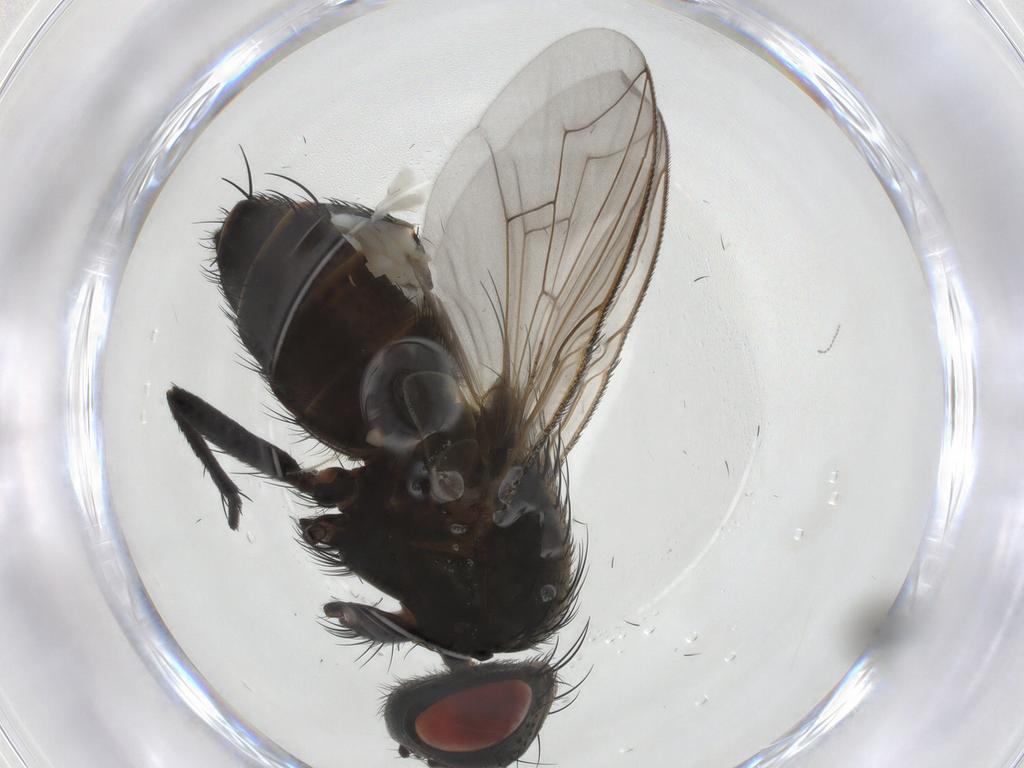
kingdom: Animalia
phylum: Arthropoda
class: Insecta
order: Diptera
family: Sarcophagidae
